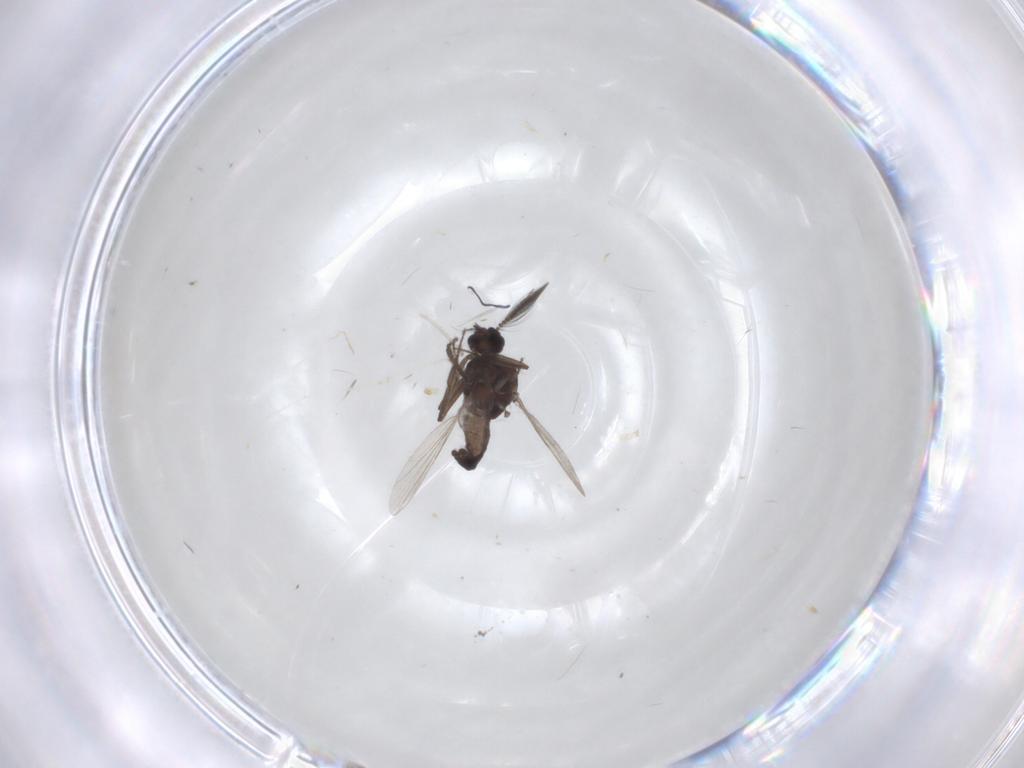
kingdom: Animalia
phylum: Arthropoda
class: Insecta
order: Diptera
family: Ceratopogonidae
